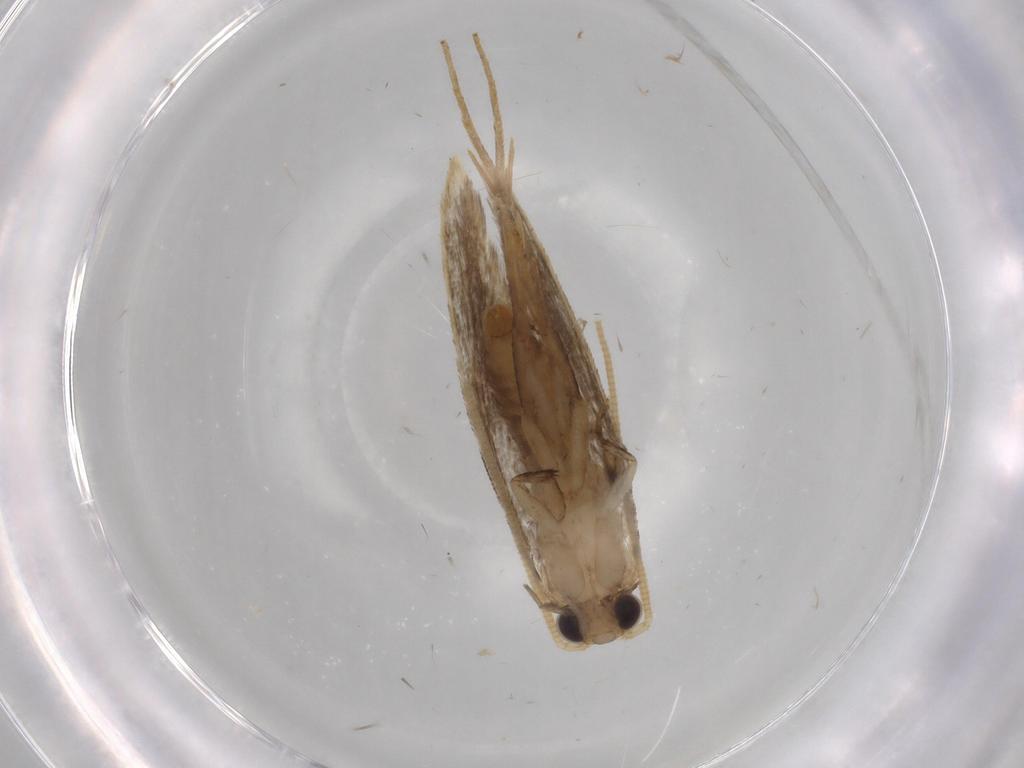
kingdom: Animalia
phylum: Arthropoda
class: Insecta
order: Lepidoptera
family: Tineidae
